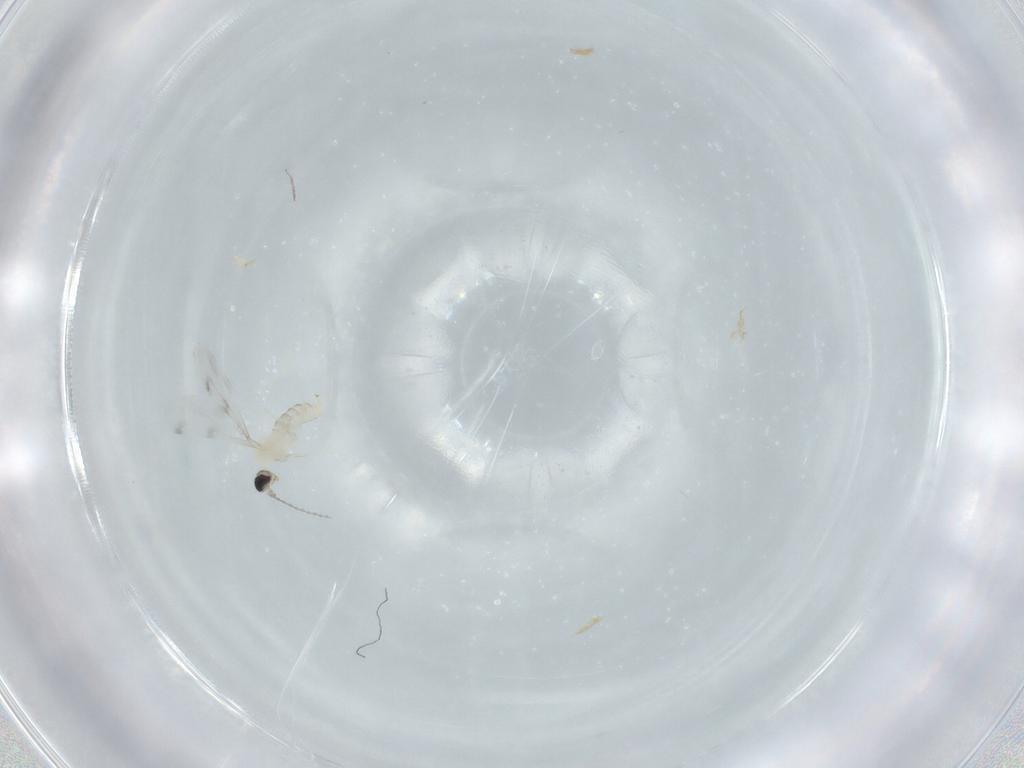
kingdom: Animalia
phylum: Arthropoda
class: Insecta
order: Diptera
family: Cecidomyiidae
